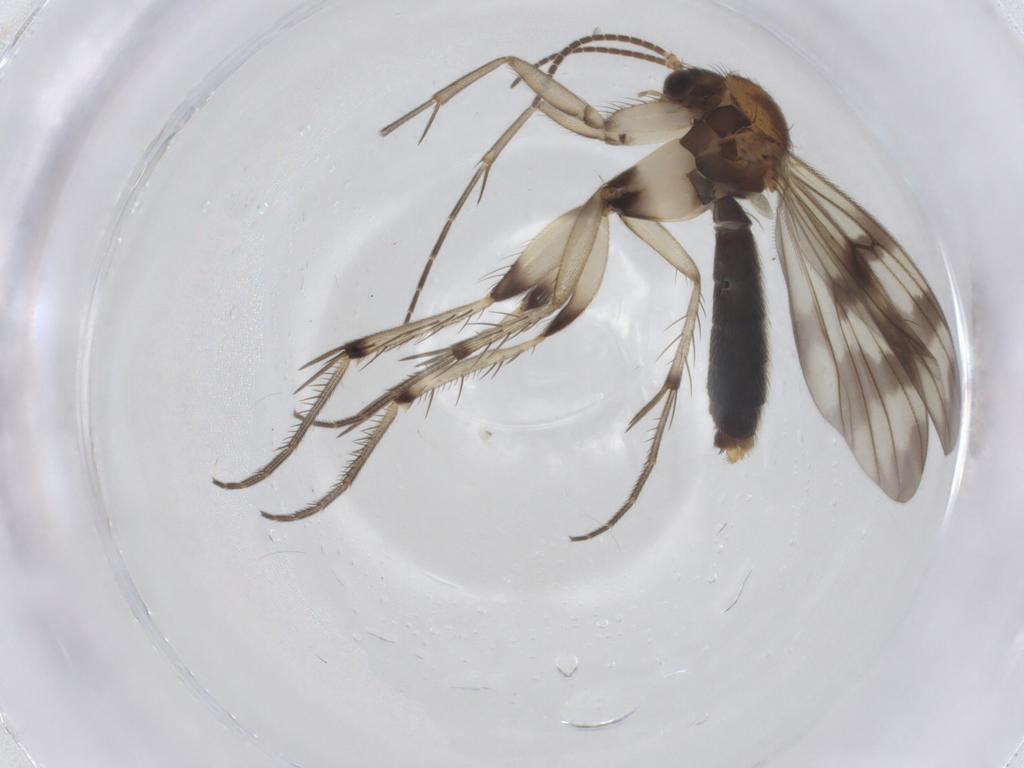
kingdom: Animalia
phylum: Arthropoda
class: Insecta
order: Diptera
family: Mycetophilidae
